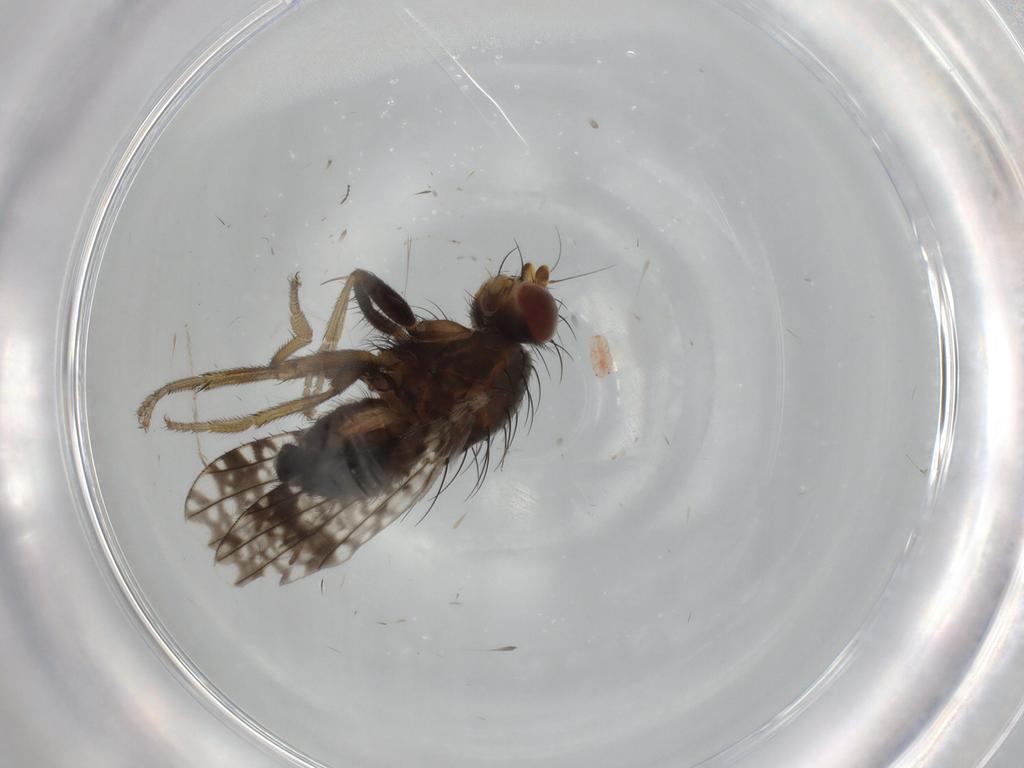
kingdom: Animalia
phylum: Arthropoda
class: Insecta
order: Diptera
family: Tephritidae
